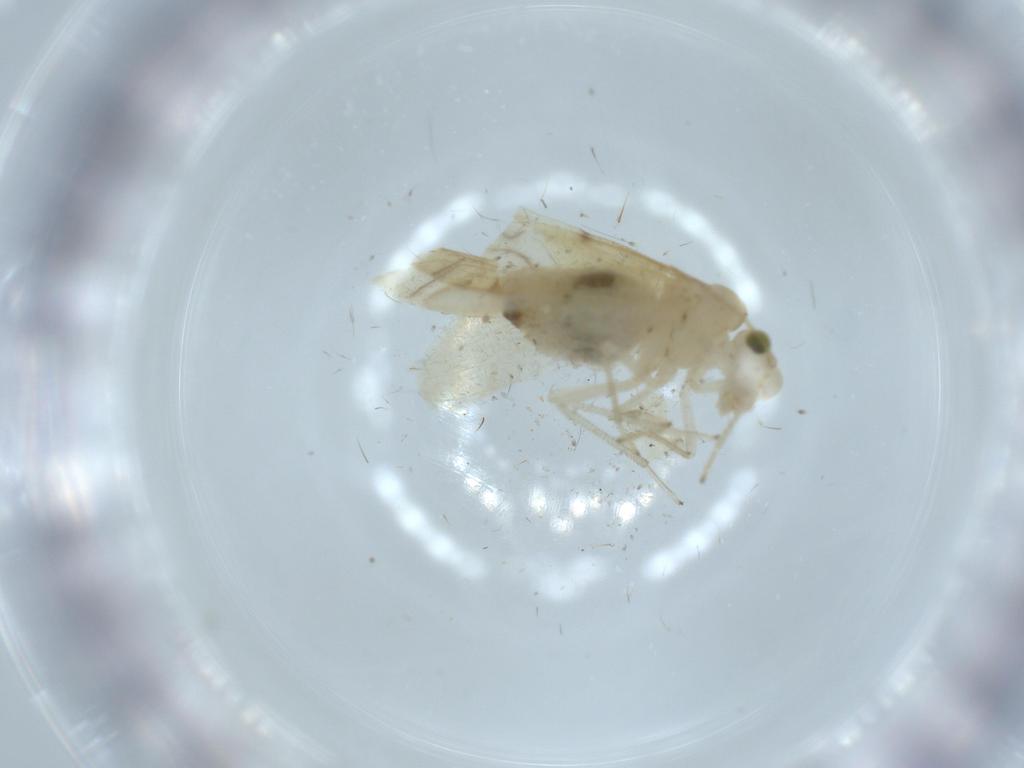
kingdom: Animalia
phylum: Arthropoda
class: Insecta
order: Psocodea
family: Caeciliusidae
